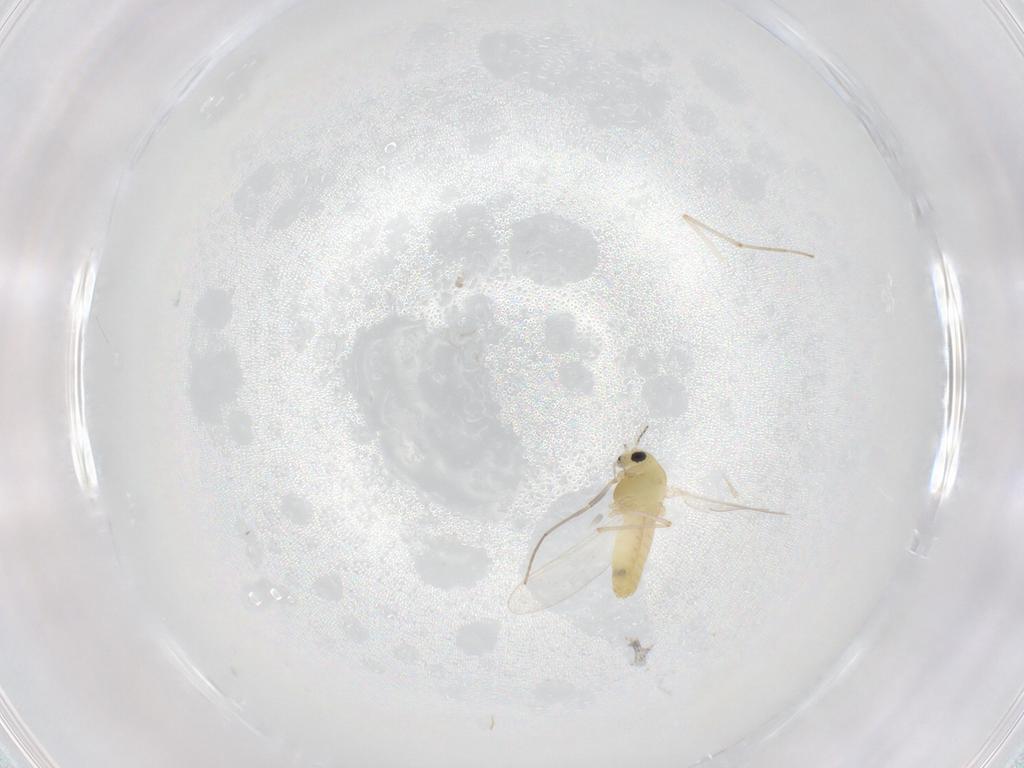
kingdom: Animalia
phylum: Arthropoda
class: Insecta
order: Diptera
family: Chironomidae
